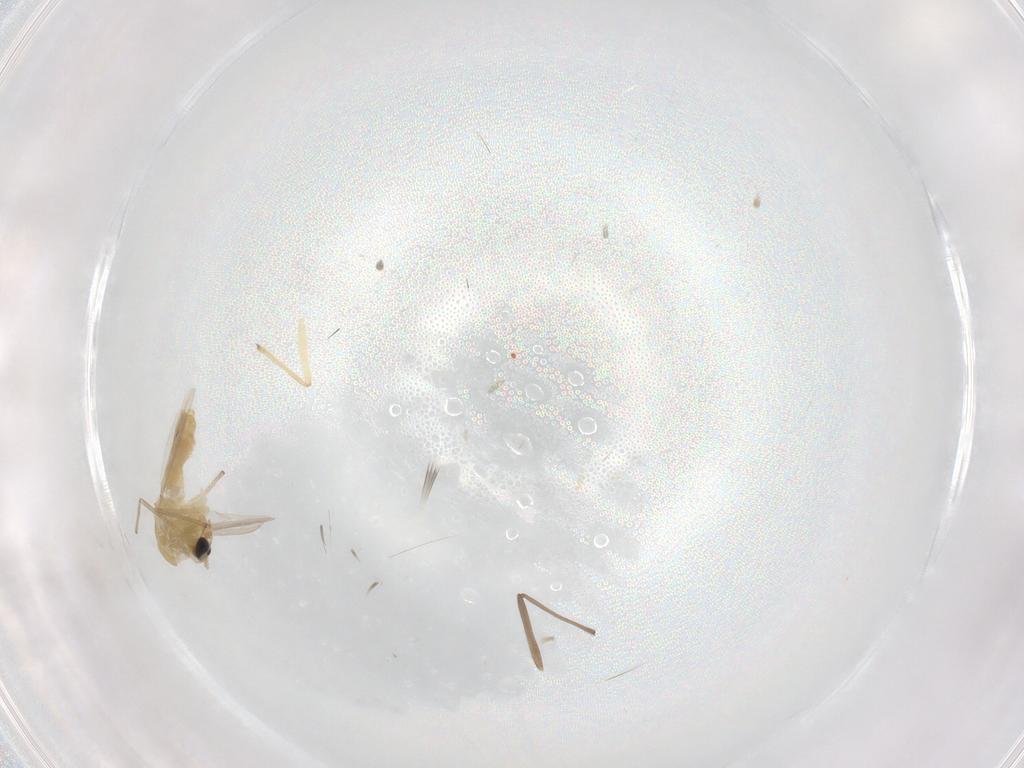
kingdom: Animalia
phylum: Arthropoda
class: Insecta
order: Diptera
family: Chironomidae
